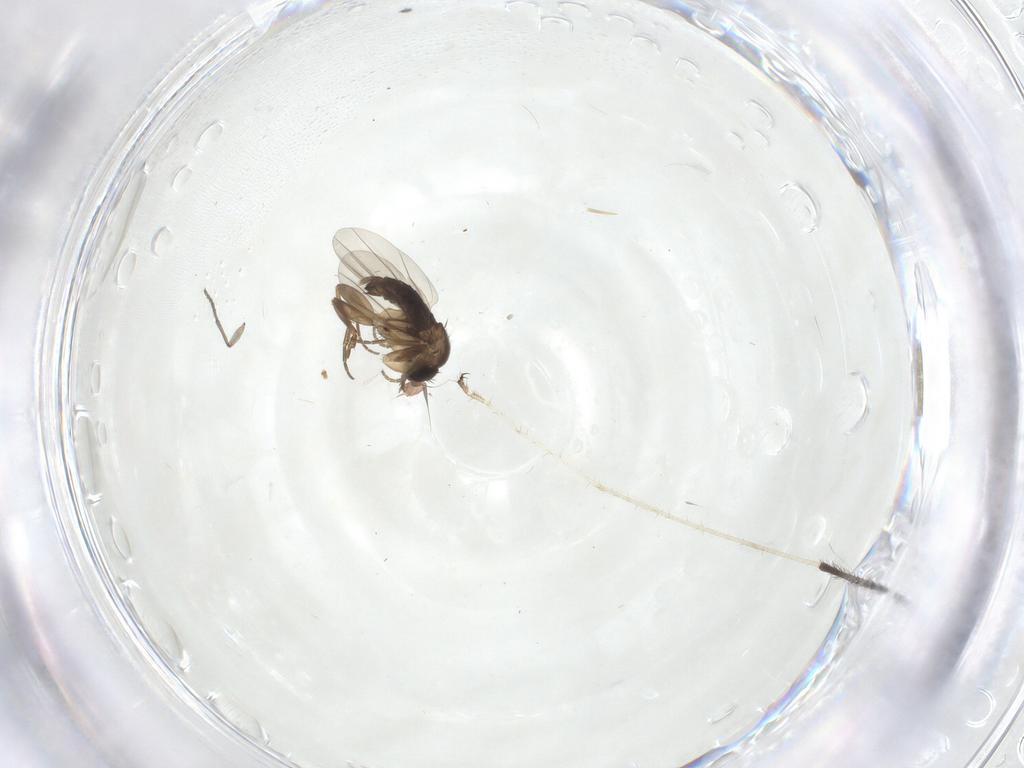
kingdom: Animalia
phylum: Arthropoda
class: Insecta
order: Diptera
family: Limoniidae
